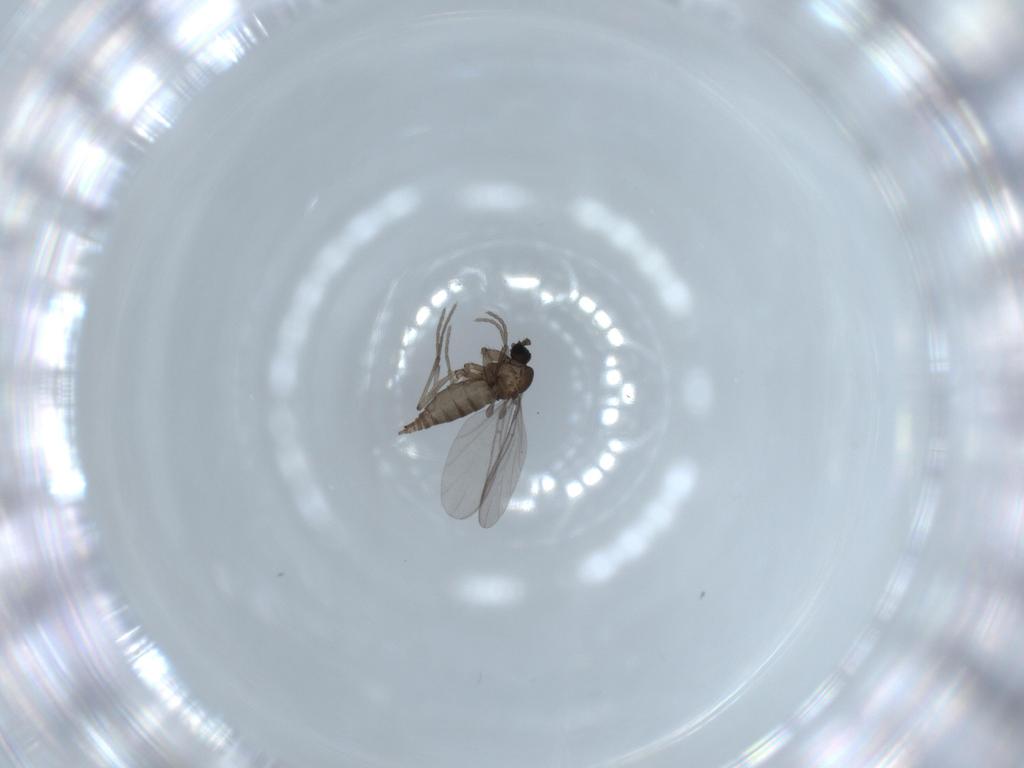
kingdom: Animalia
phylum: Arthropoda
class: Insecta
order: Diptera
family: Sciaridae
